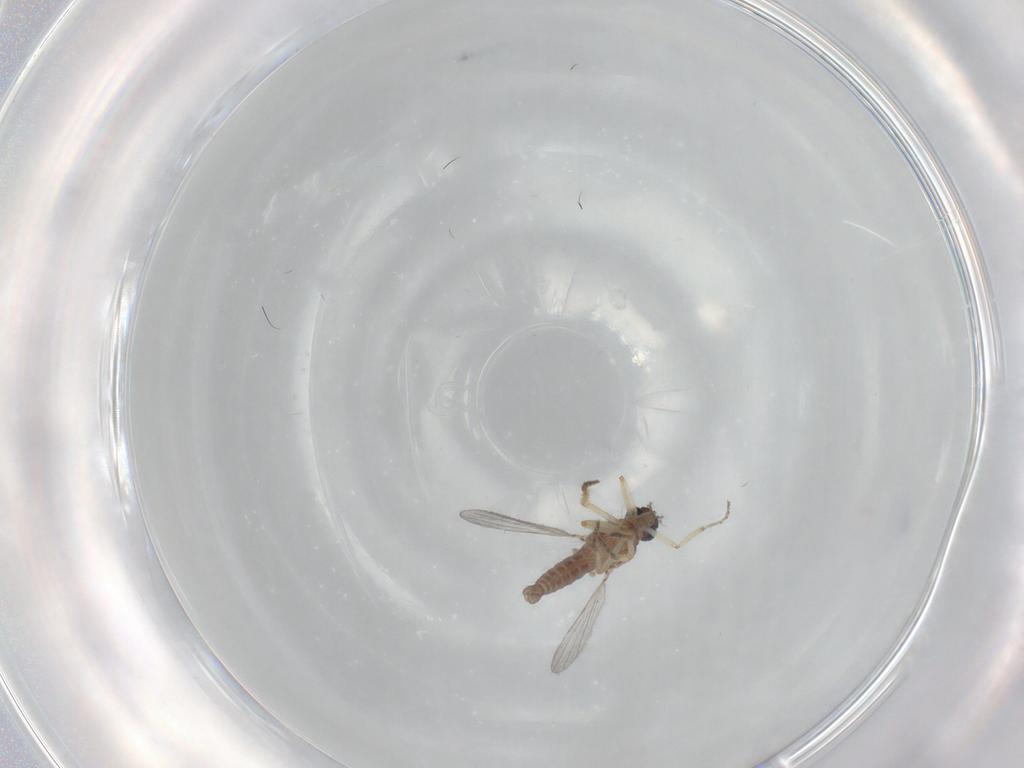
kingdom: Animalia
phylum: Arthropoda
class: Insecta
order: Diptera
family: Ceratopogonidae
